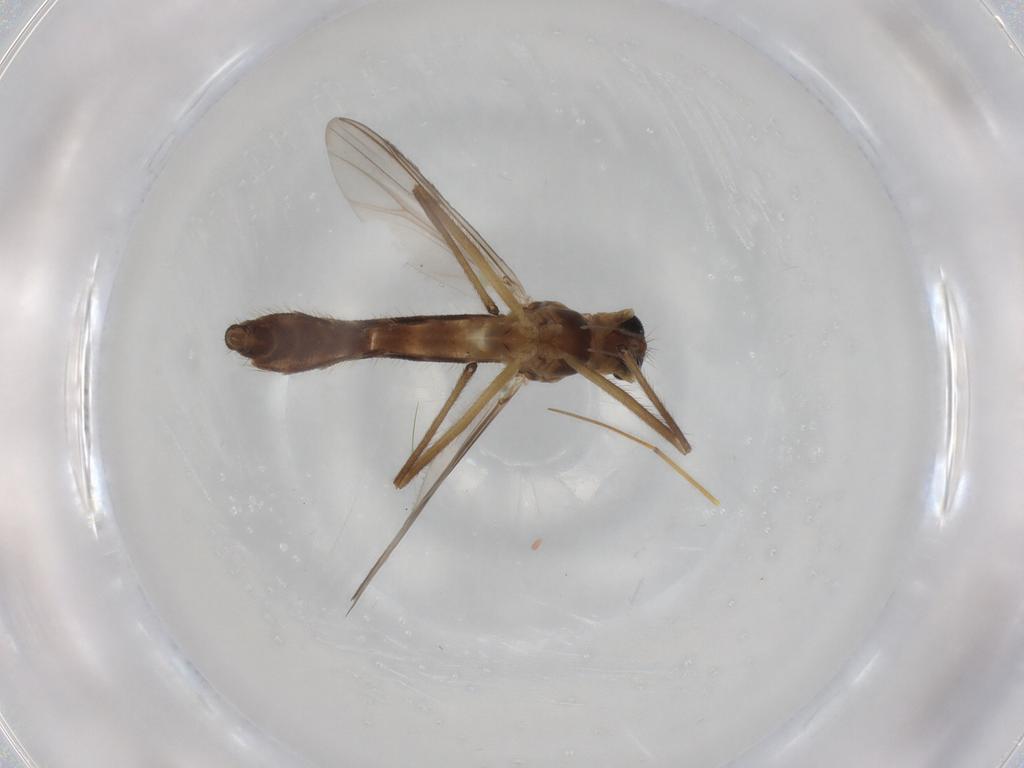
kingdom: Animalia
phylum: Arthropoda
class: Insecta
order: Diptera
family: Chironomidae
